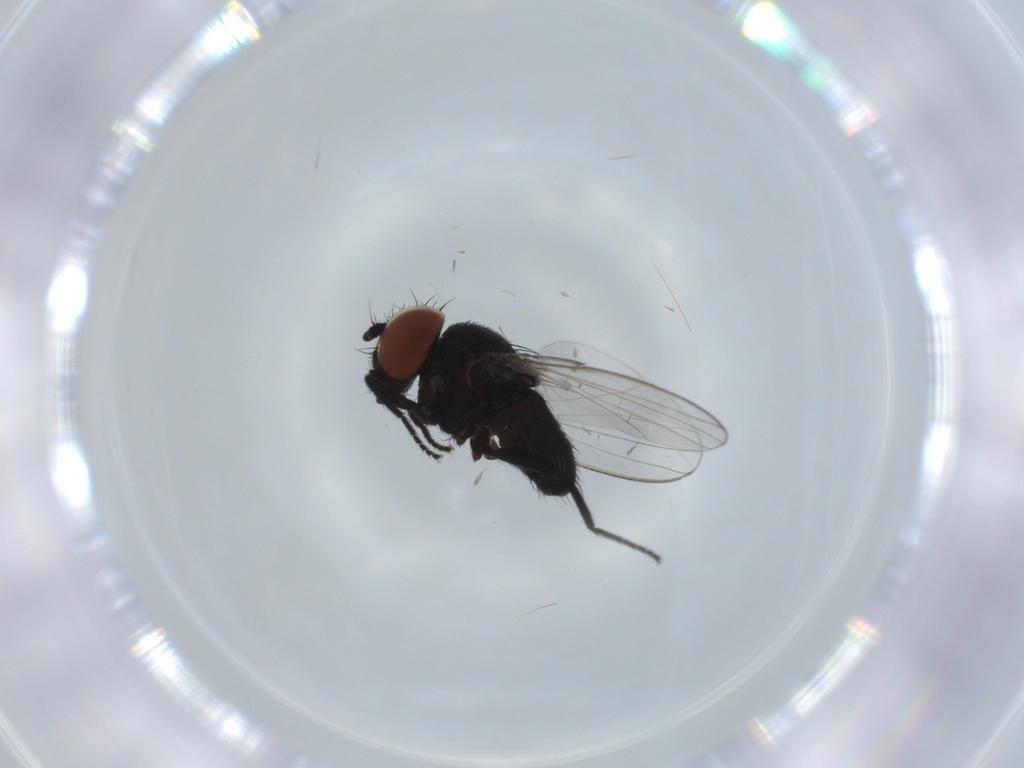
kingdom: Animalia
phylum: Arthropoda
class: Insecta
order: Diptera
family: Milichiidae
